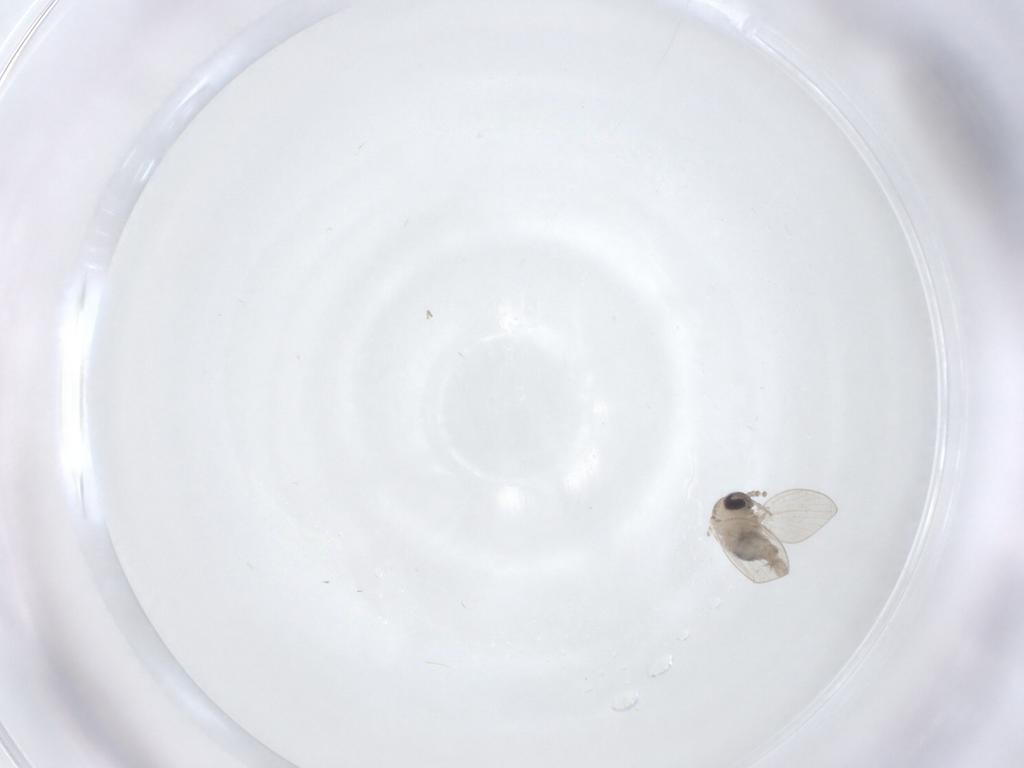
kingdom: Animalia
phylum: Arthropoda
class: Insecta
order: Diptera
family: Psychodidae
